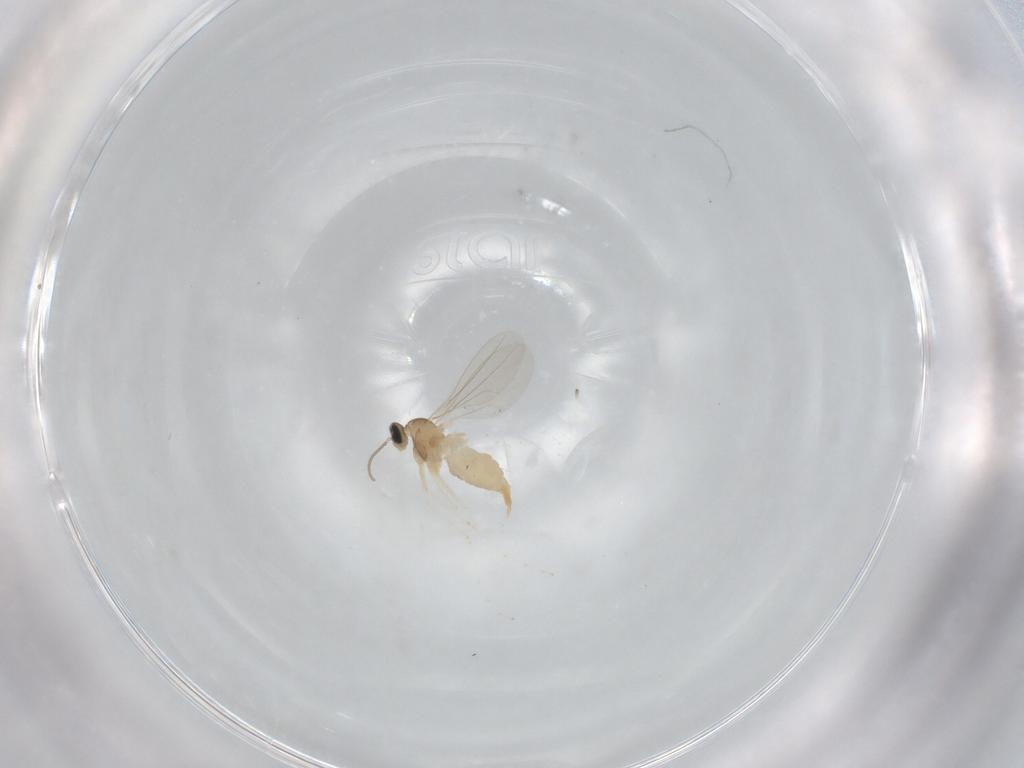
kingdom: Animalia
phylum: Arthropoda
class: Insecta
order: Diptera
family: Cecidomyiidae
